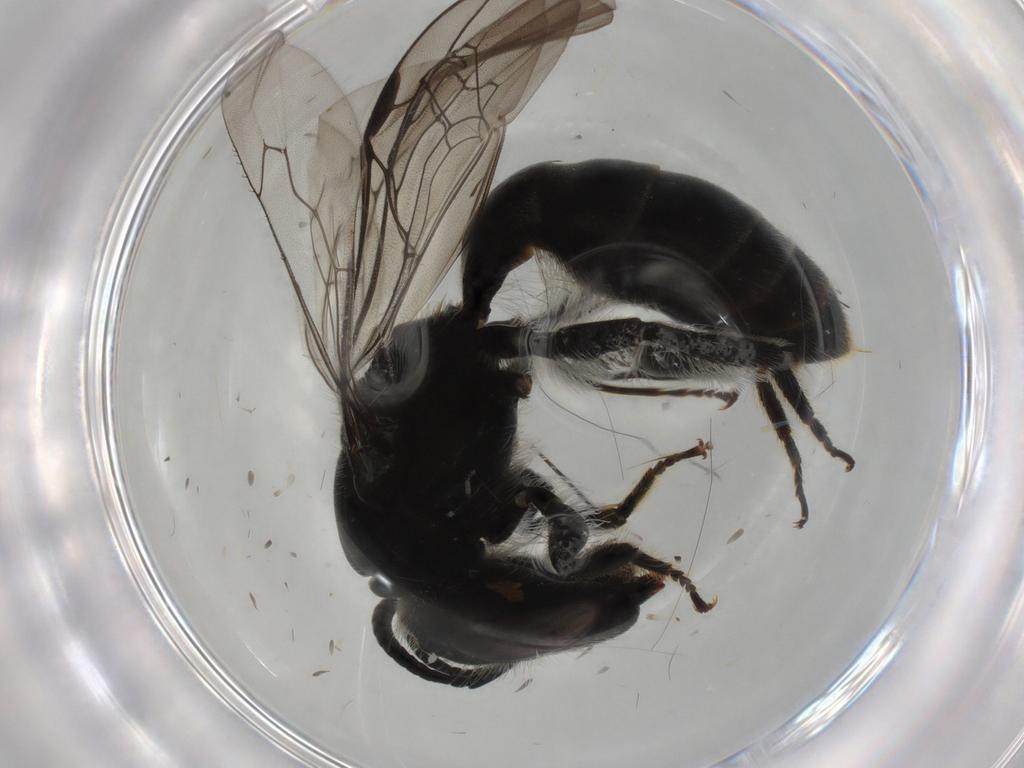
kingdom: Animalia
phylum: Arthropoda
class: Insecta
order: Hymenoptera
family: Colletidae
